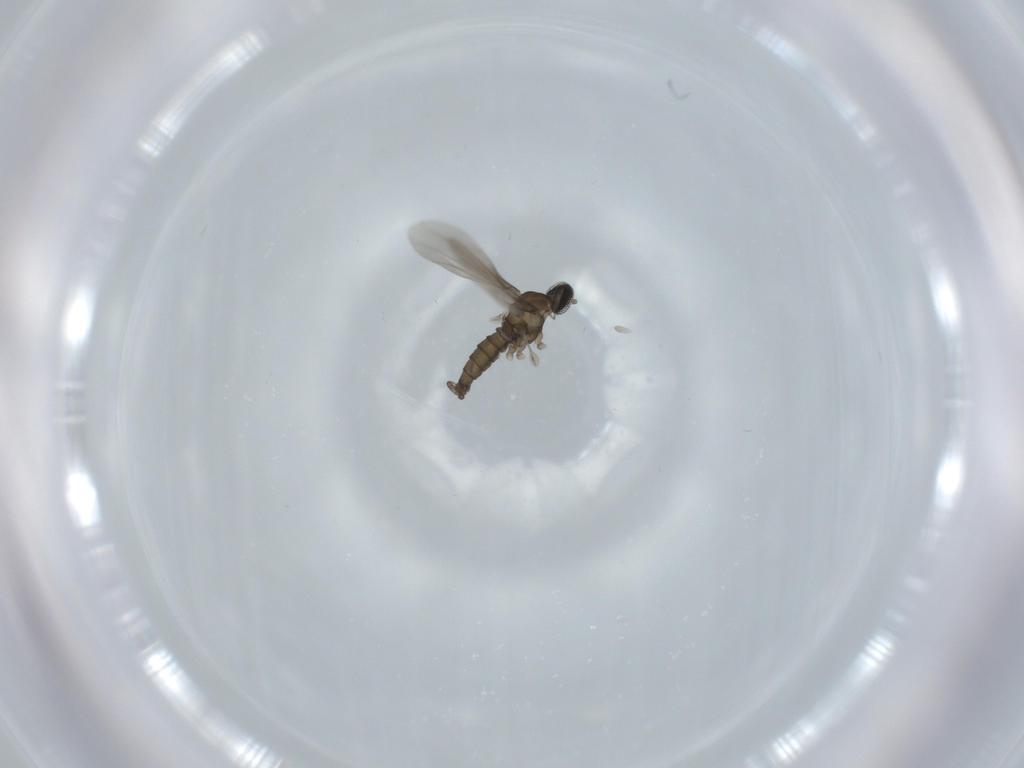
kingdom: Animalia
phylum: Arthropoda
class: Insecta
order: Diptera
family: Cecidomyiidae
